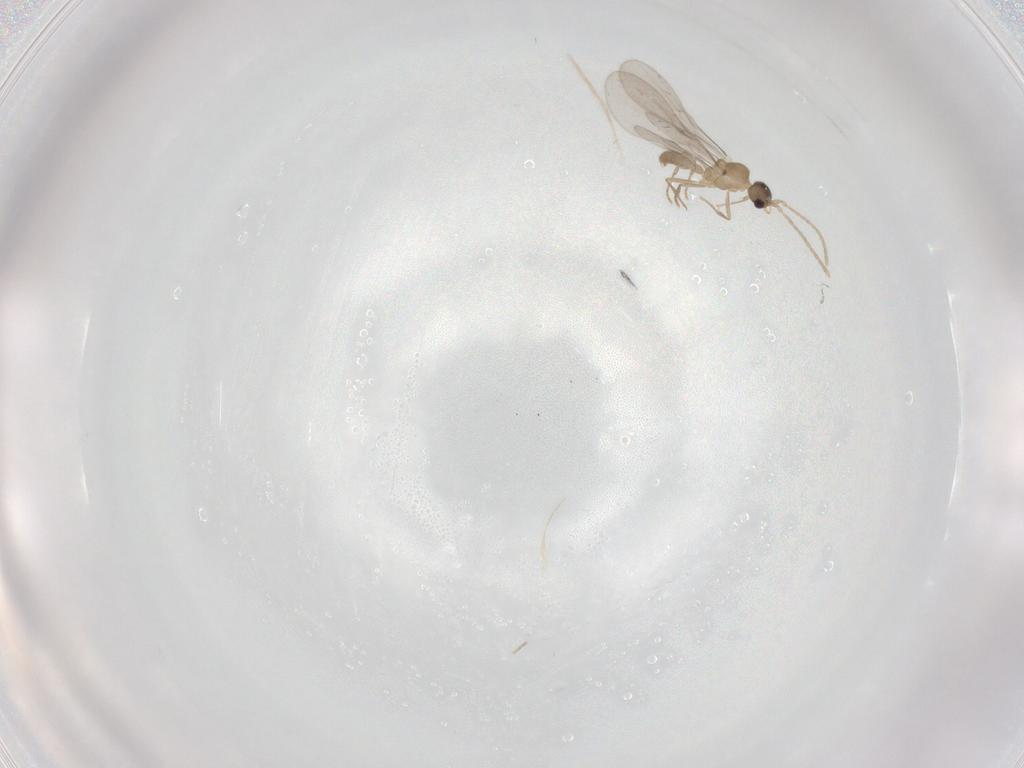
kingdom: Animalia
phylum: Arthropoda
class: Insecta
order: Hymenoptera
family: Formicidae
